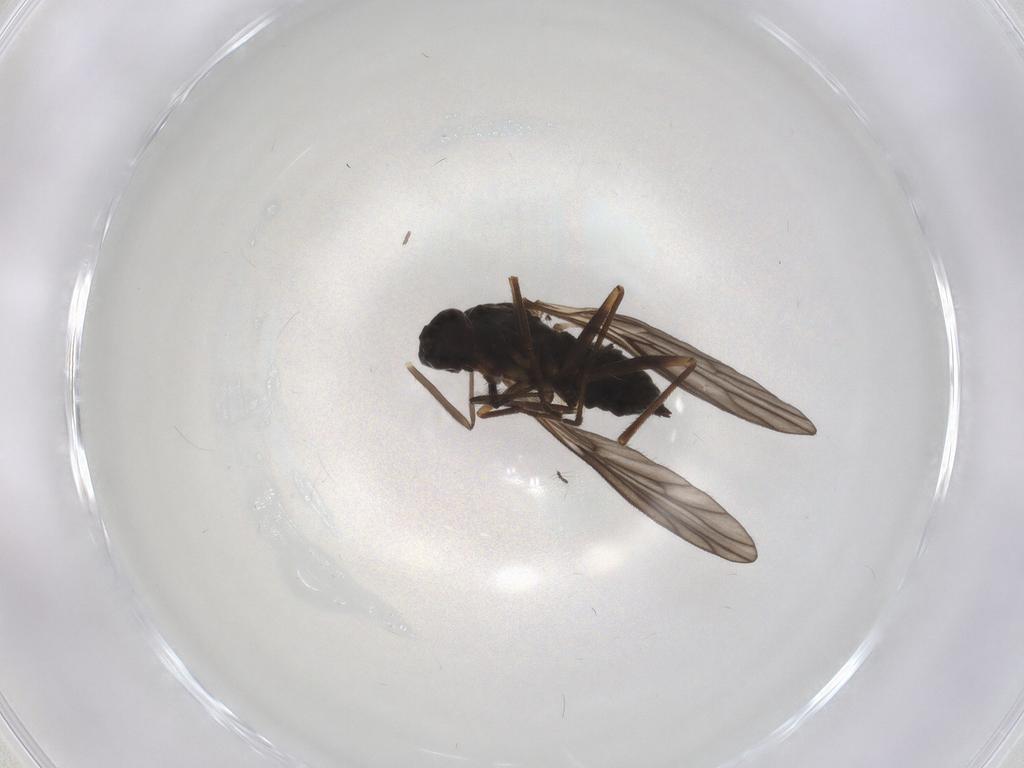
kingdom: Animalia
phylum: Arthropoda
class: Insecta
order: Diptera
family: Chironomidae
